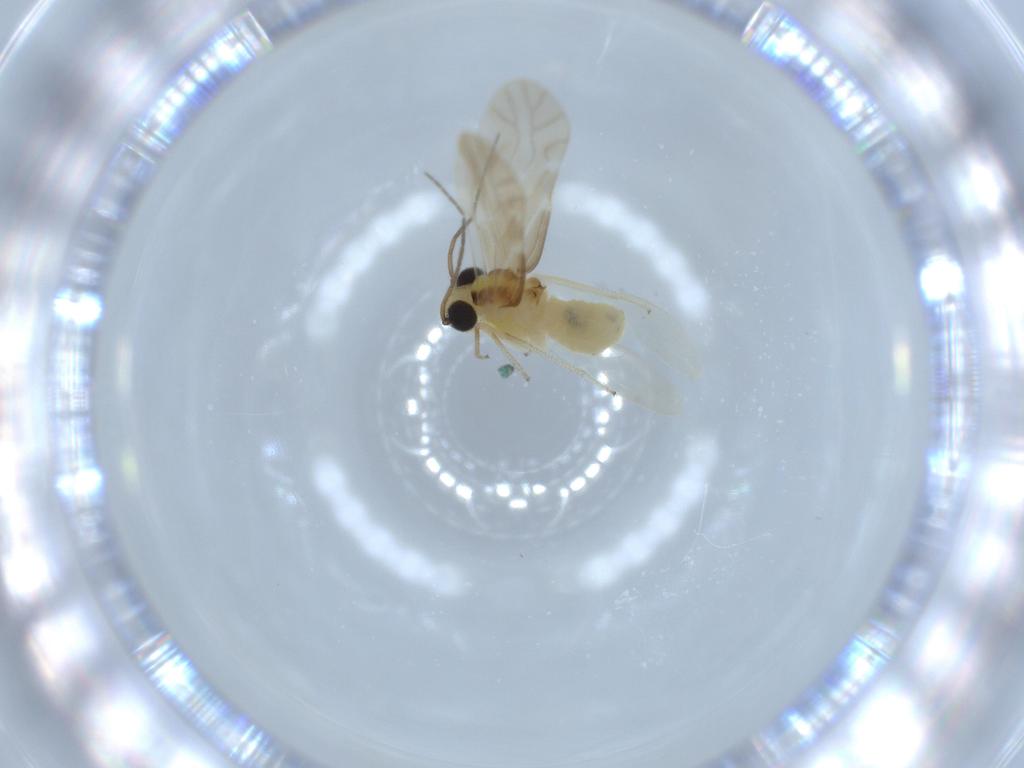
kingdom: Animalia
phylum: Arthropoda
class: Insecta
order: Psocodea
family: Caeciliusidae
